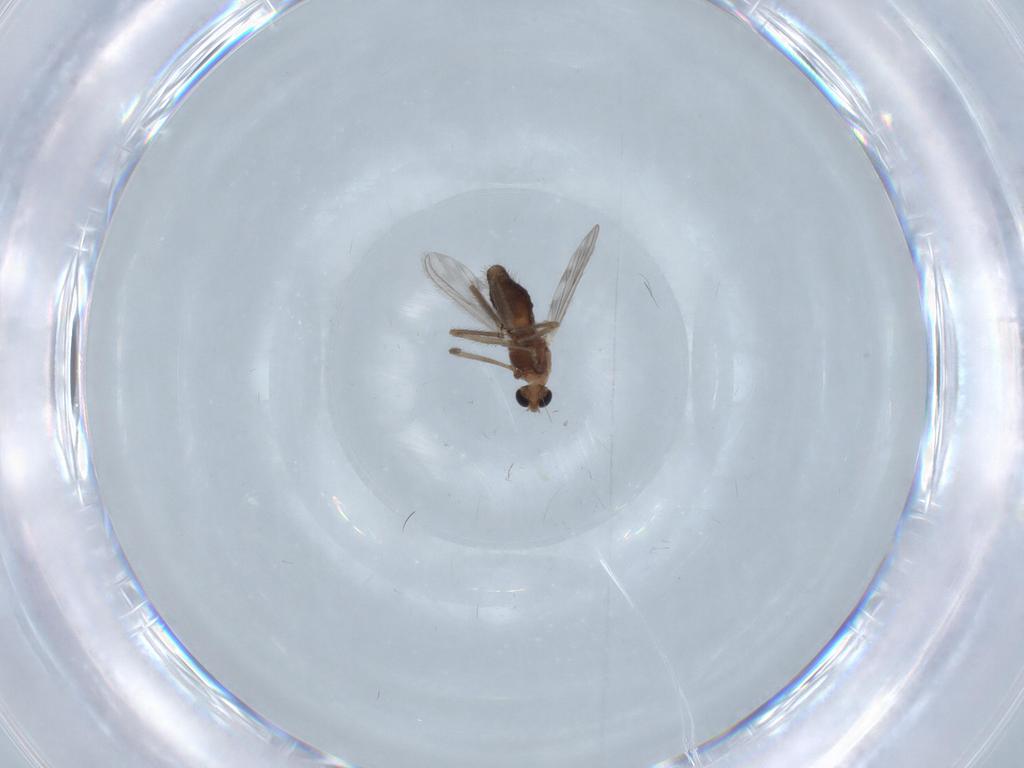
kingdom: Animalia
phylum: Arthropoda
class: Insecta
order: Diptera
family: Chironomidae
